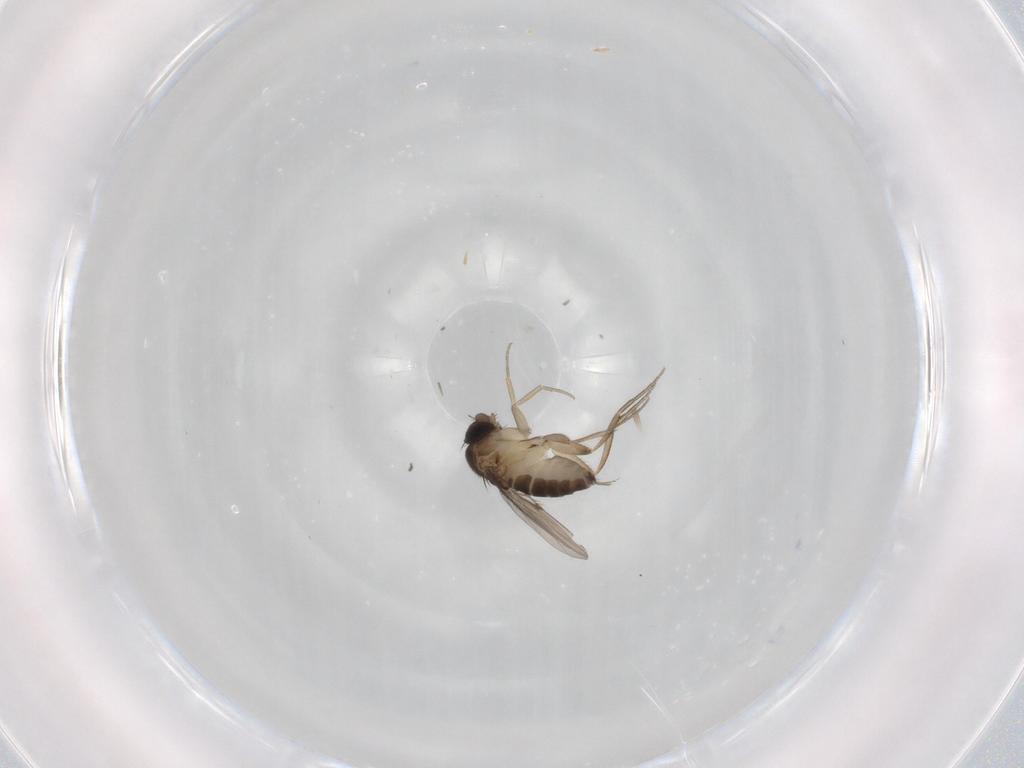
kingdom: Animalia
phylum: Arthropoda
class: Insecta
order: Diptera
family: Phoridae
